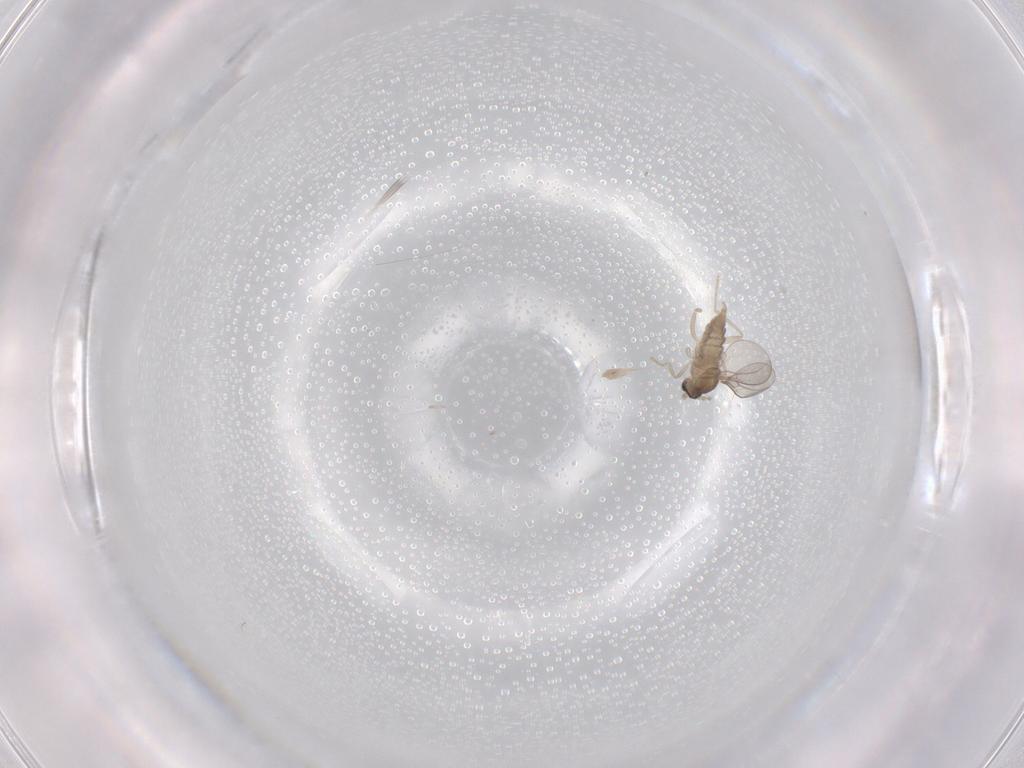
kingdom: Animalia
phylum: Arthropoda
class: Insecta
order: Diptera
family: Cecidomyiidae
